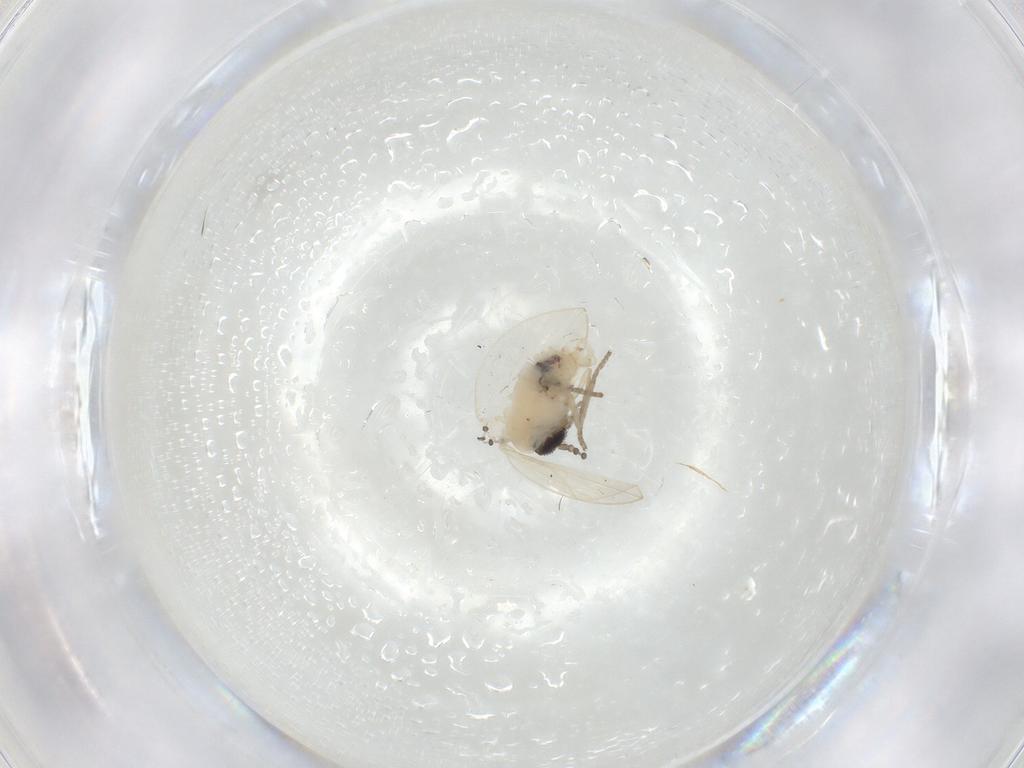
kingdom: Animalia
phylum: Arthropoda
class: Insecta
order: Diptera
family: Psychodidae
